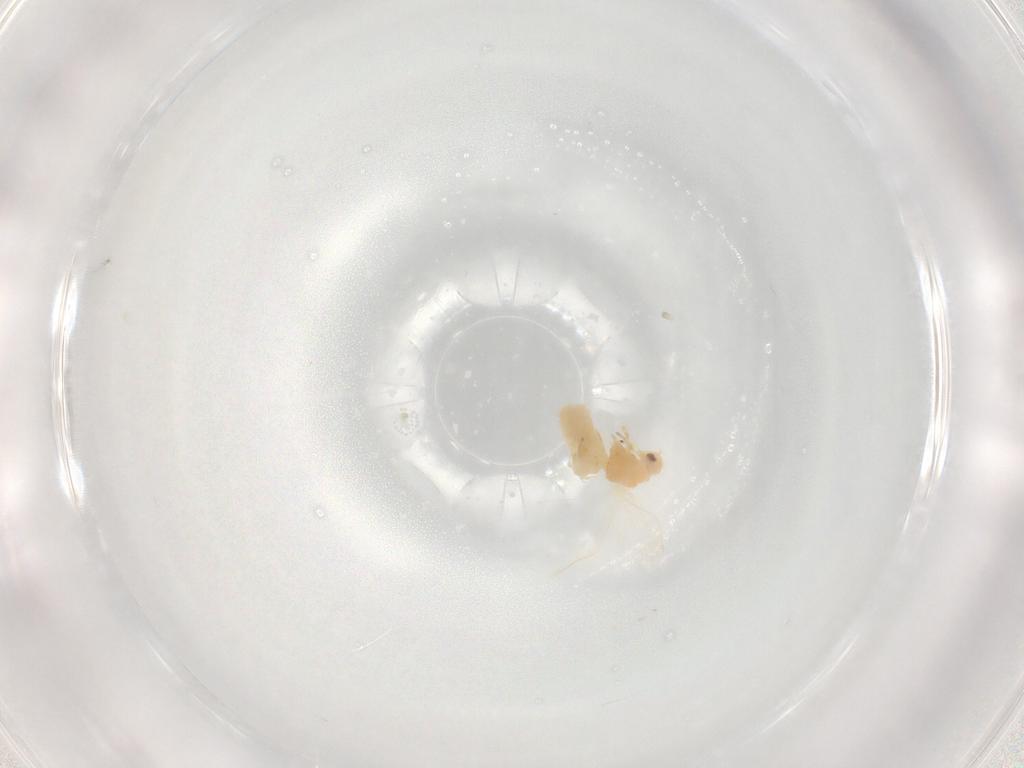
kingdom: Animalia
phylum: Arthropoda
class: Insecta
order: Hemiptera
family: Aleyrodidae
